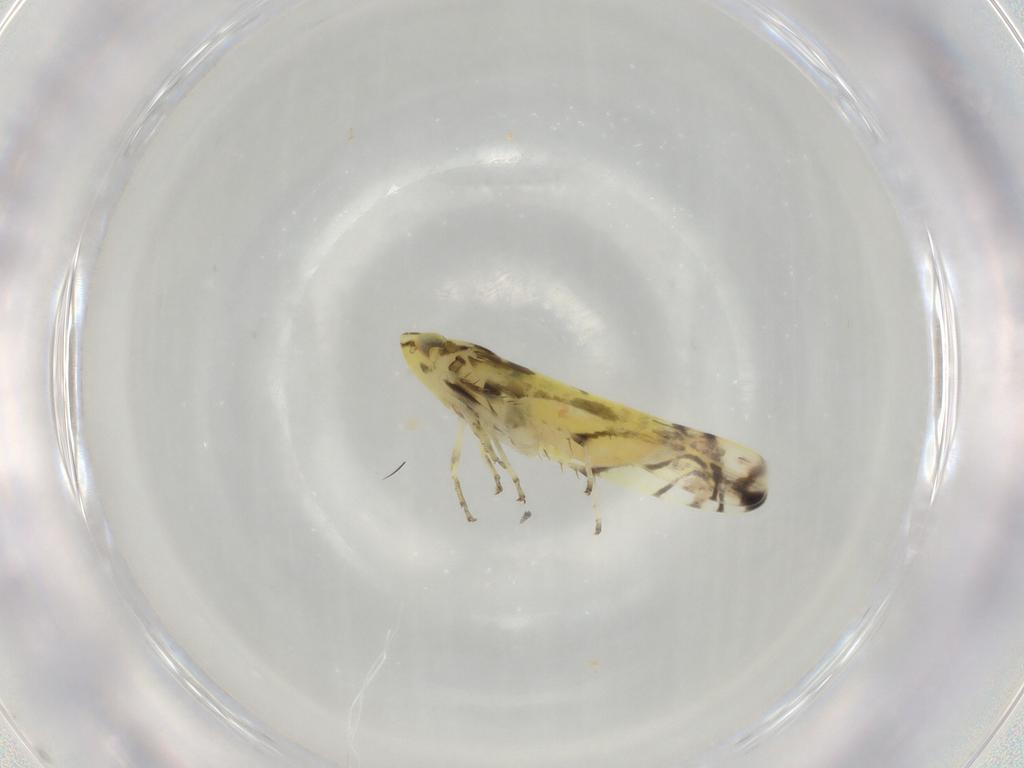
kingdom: Animalia
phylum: Arthropoda
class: Insecta
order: Hemiptera
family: Cicadellidae
